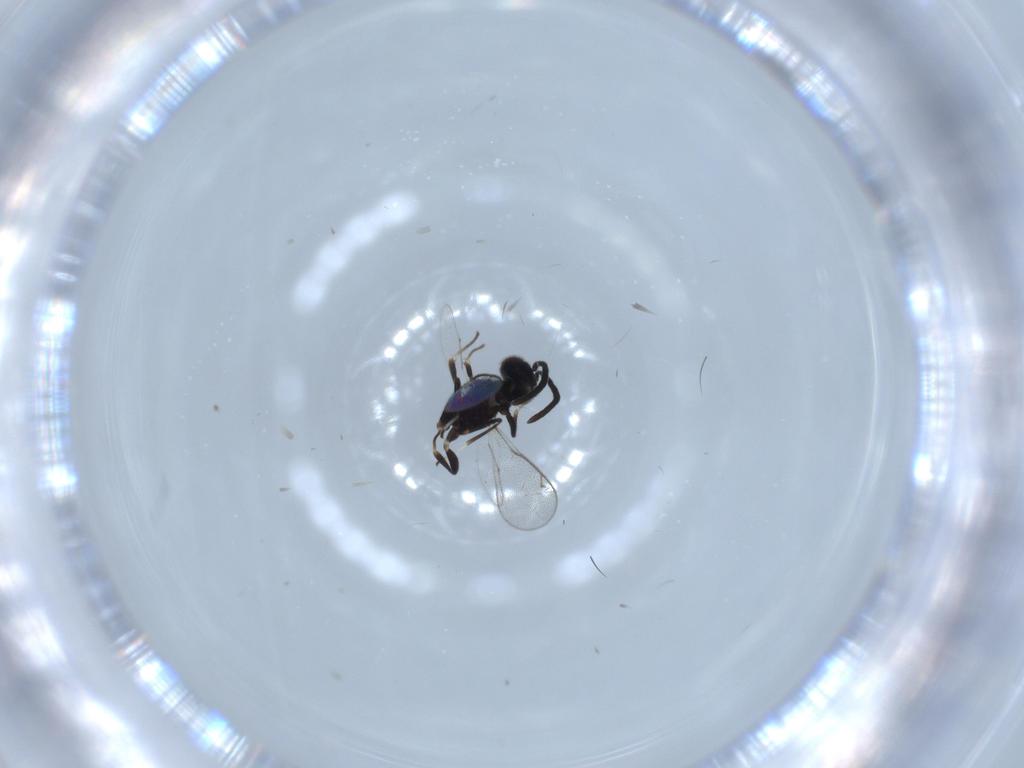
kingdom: Animalia
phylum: Arthropoda
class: Insecta
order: Hymenoptera
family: Eupelmidae
